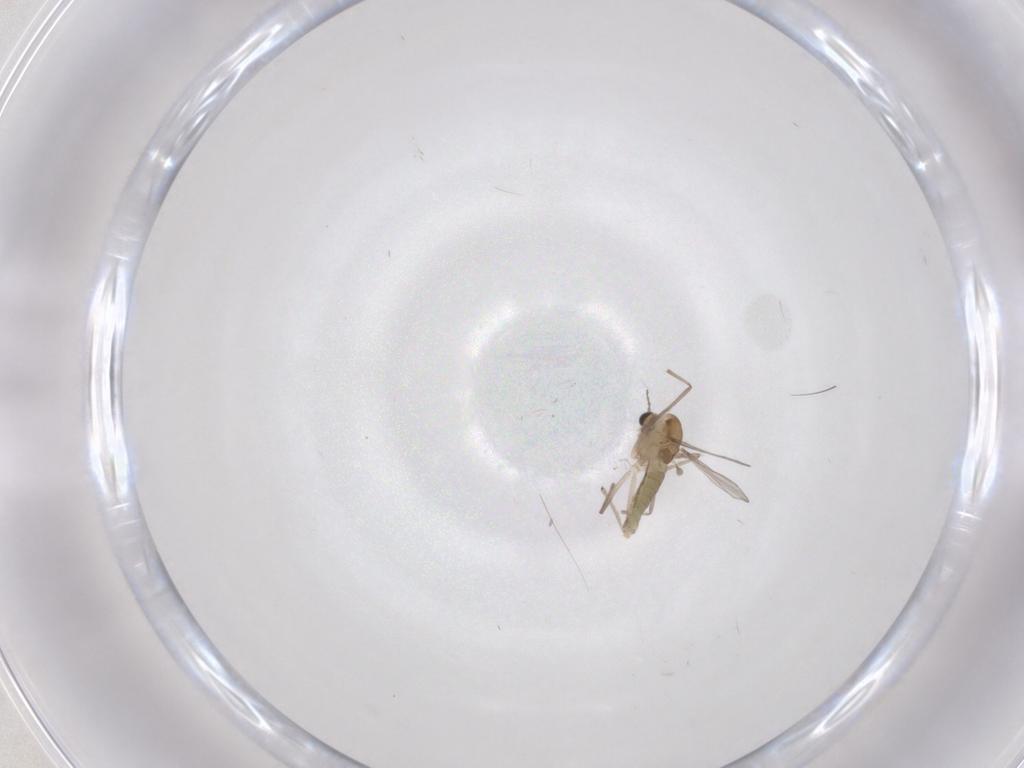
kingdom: Animalia
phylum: Arthropoda
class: Insecta
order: Diptera
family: Chironomidae
